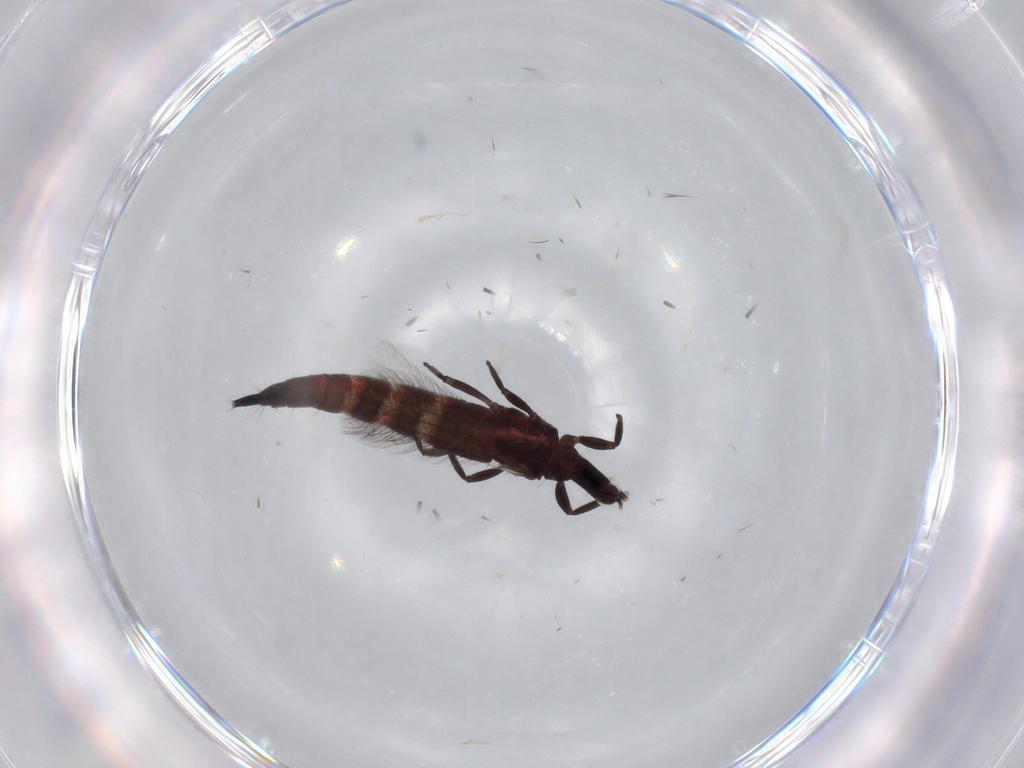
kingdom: Animalia
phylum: Arthropoda
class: Insecta
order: Thysanoptera
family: Phlaeothripidae
